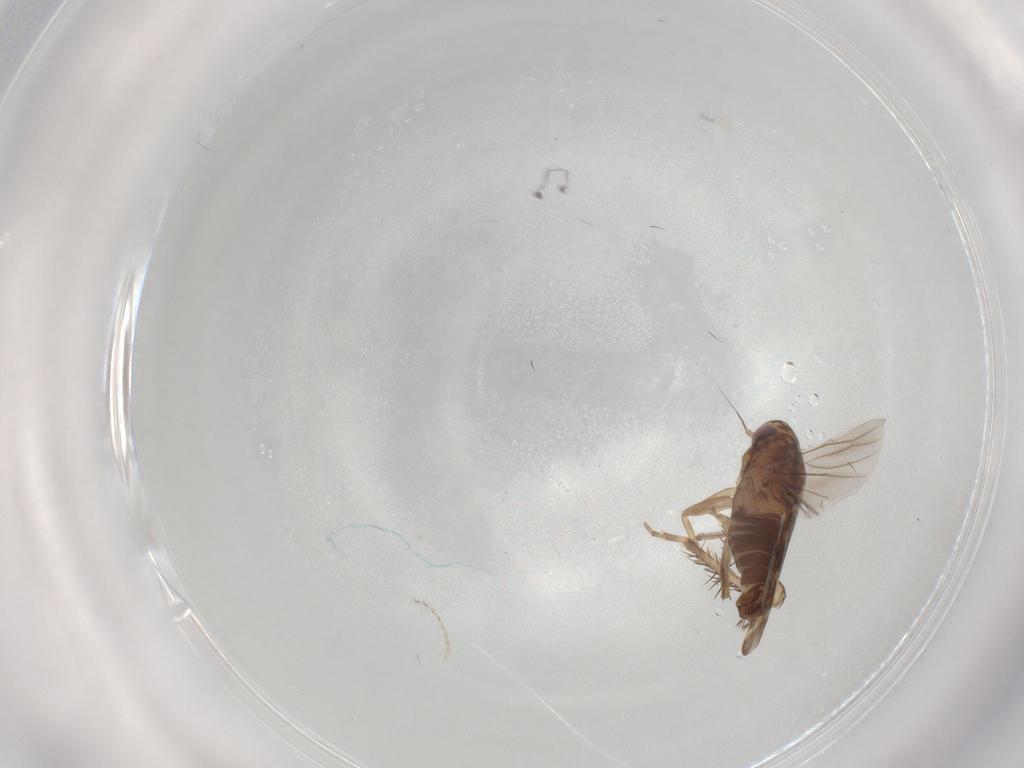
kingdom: Animalia
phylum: Arthropoda
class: Insecta
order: Hemiptera
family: Cicadellidae
